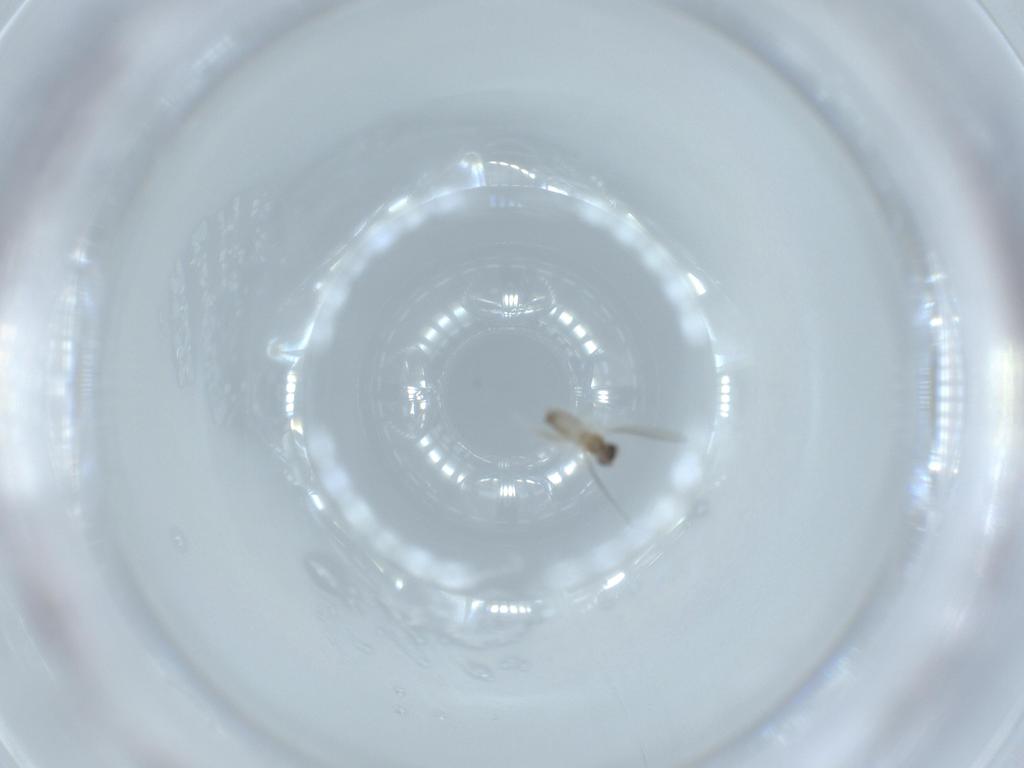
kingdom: Animalia
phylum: Arthropoda
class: Insecta
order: Diptera
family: Cecidomyiidae
